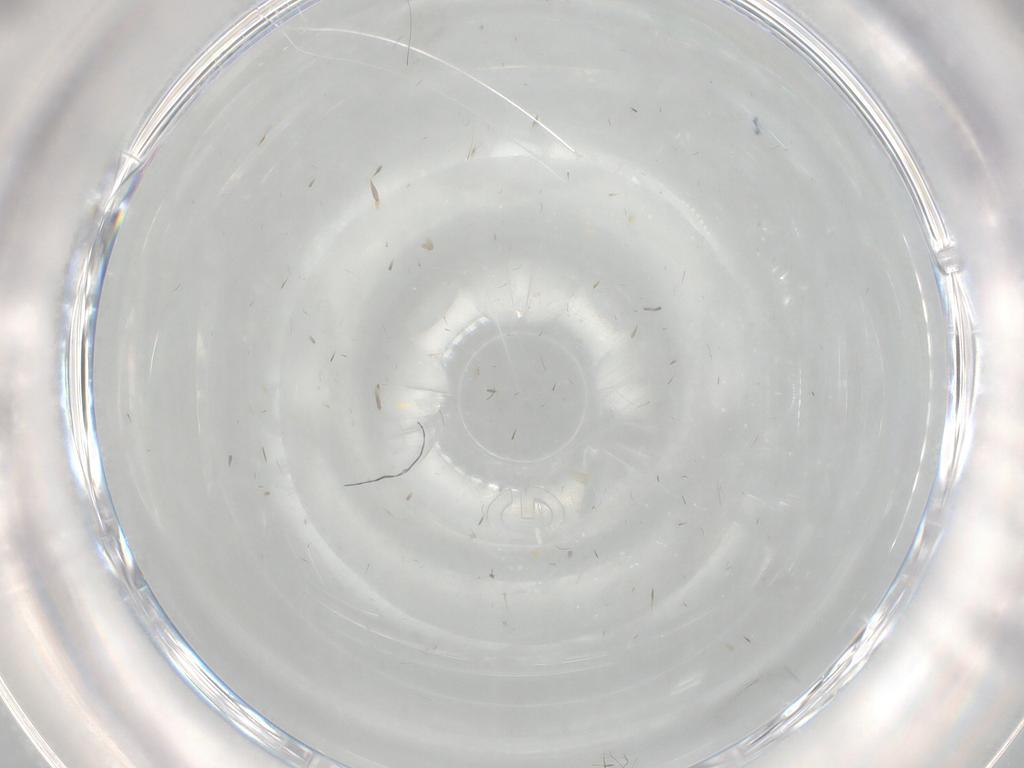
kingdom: Animalia
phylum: Arthropoda
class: Insecta
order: Diptera
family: Cecidomyiidae
